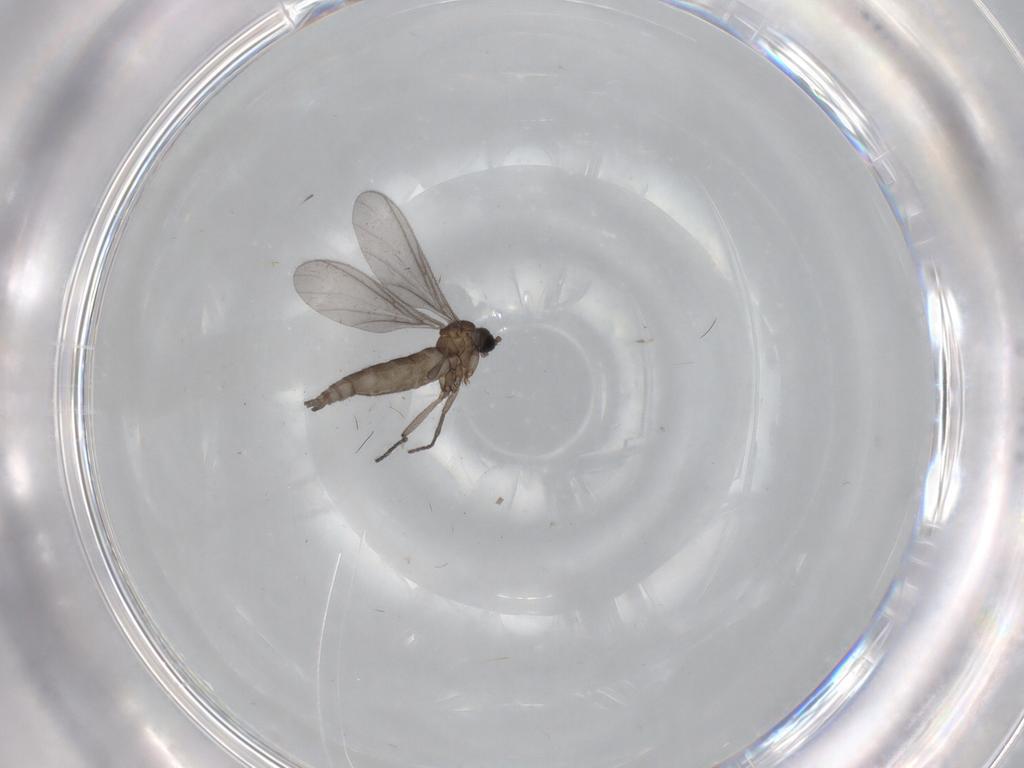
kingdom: Animalia
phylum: Arthropoda
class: Insecta
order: Diptera
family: Sciaridae
